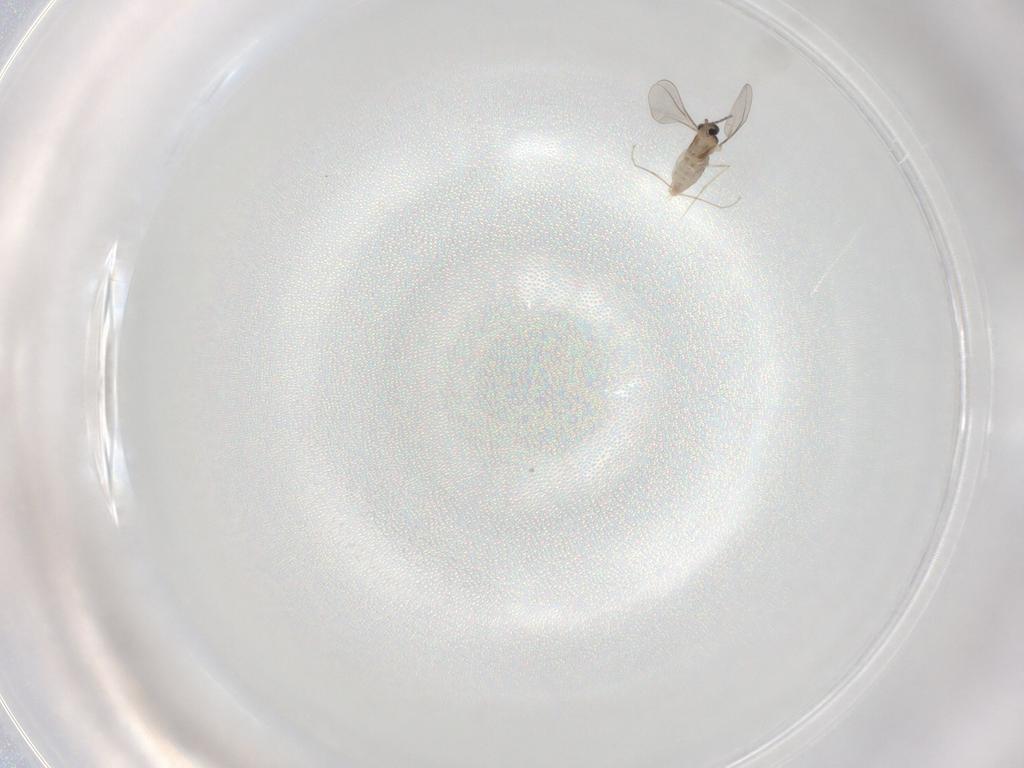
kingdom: Animalia
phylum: Arthropoda
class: Insecta
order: Diptera
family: Cecidomyiidae
